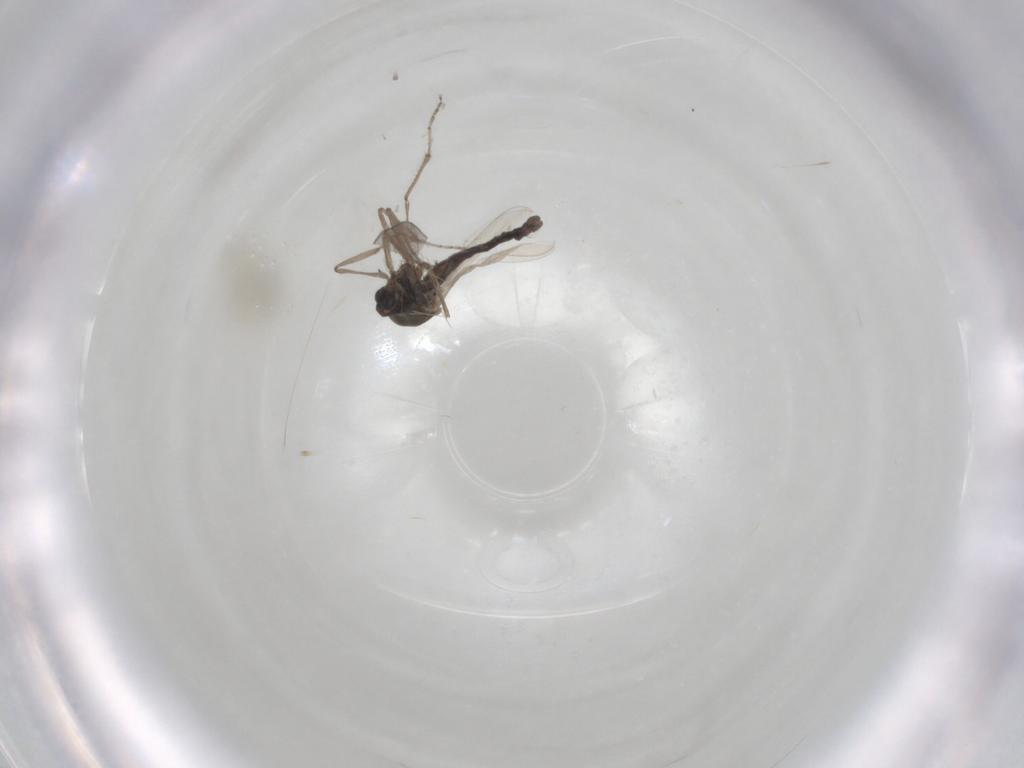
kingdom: Animalia
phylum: Arthropoda
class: Insecta
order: Diptera
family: Ceratopogonidae
